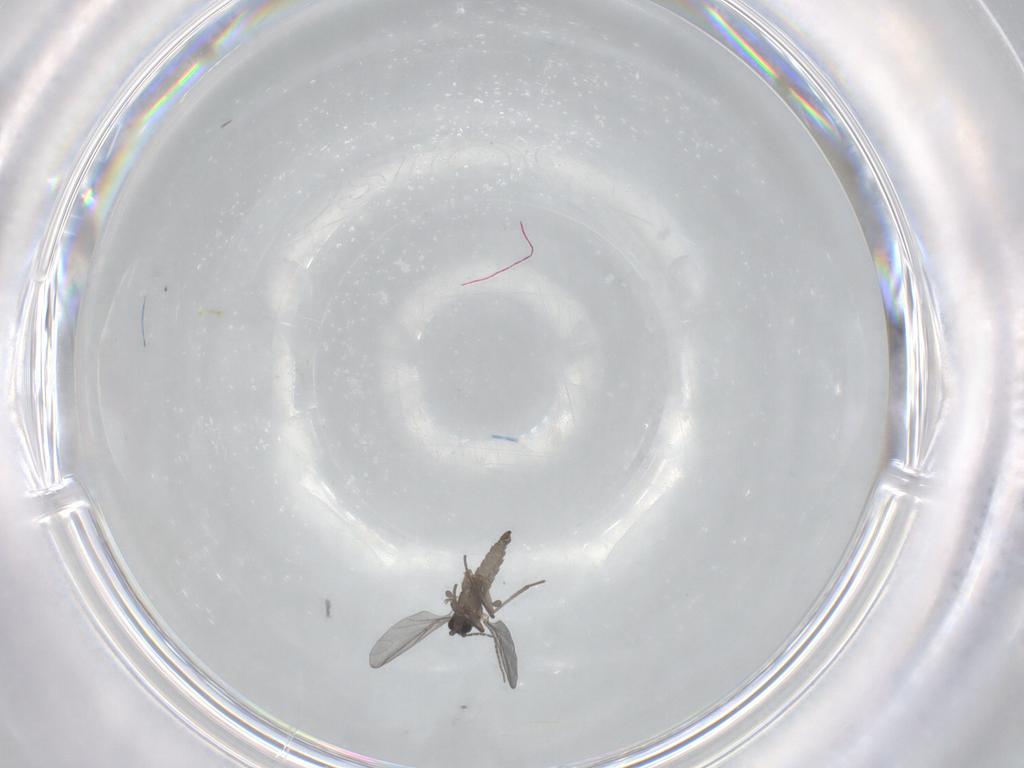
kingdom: Animalia
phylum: Arthropoda
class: Insecta
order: Diptera
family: Sciaridae
